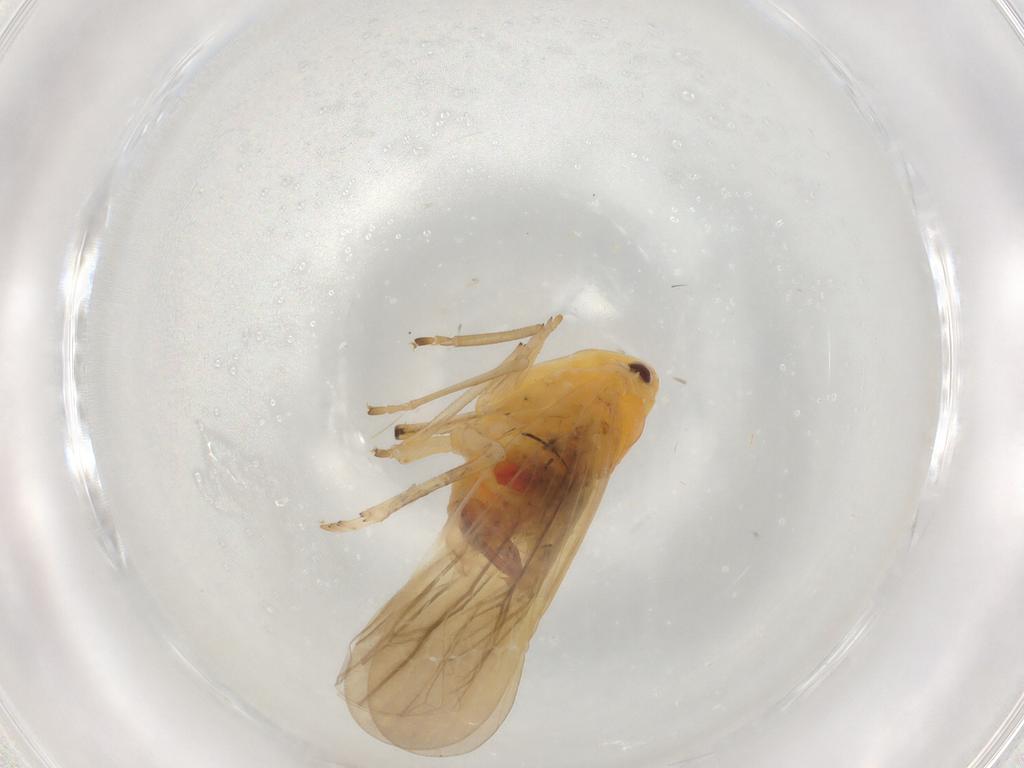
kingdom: Animalia
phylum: Arthropoda
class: Insecta
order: Hemiptera
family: Derbidae
